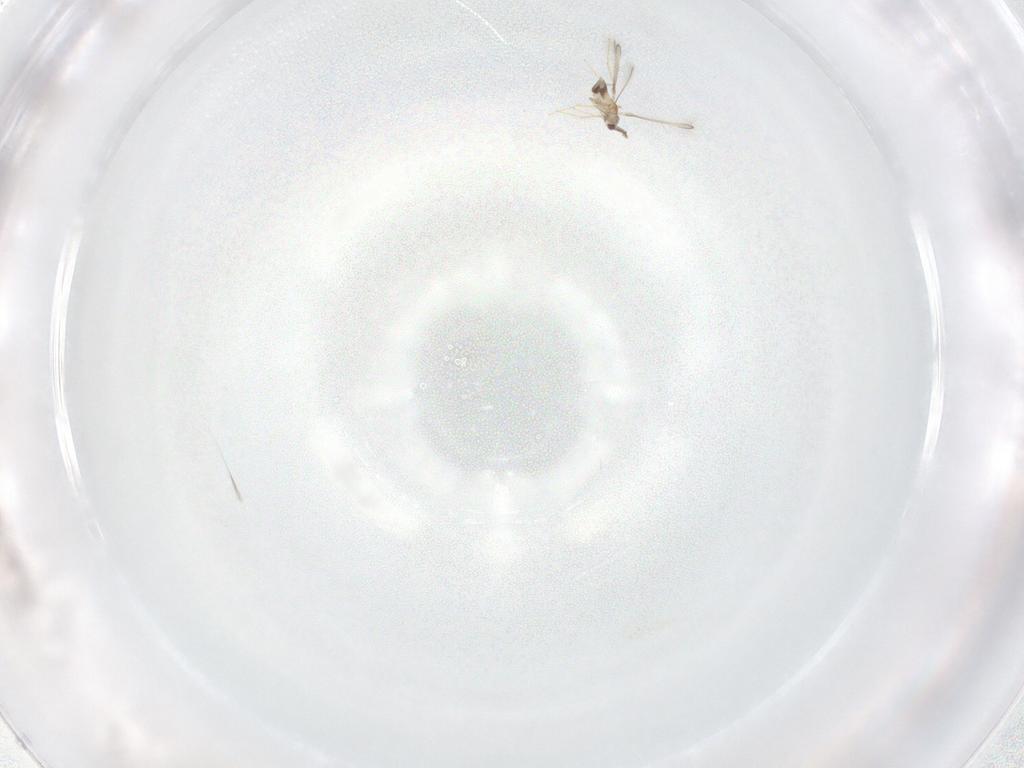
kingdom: Animalia
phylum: Arthropoda
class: Insecta
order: Hymenoptera
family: Mymaridae
